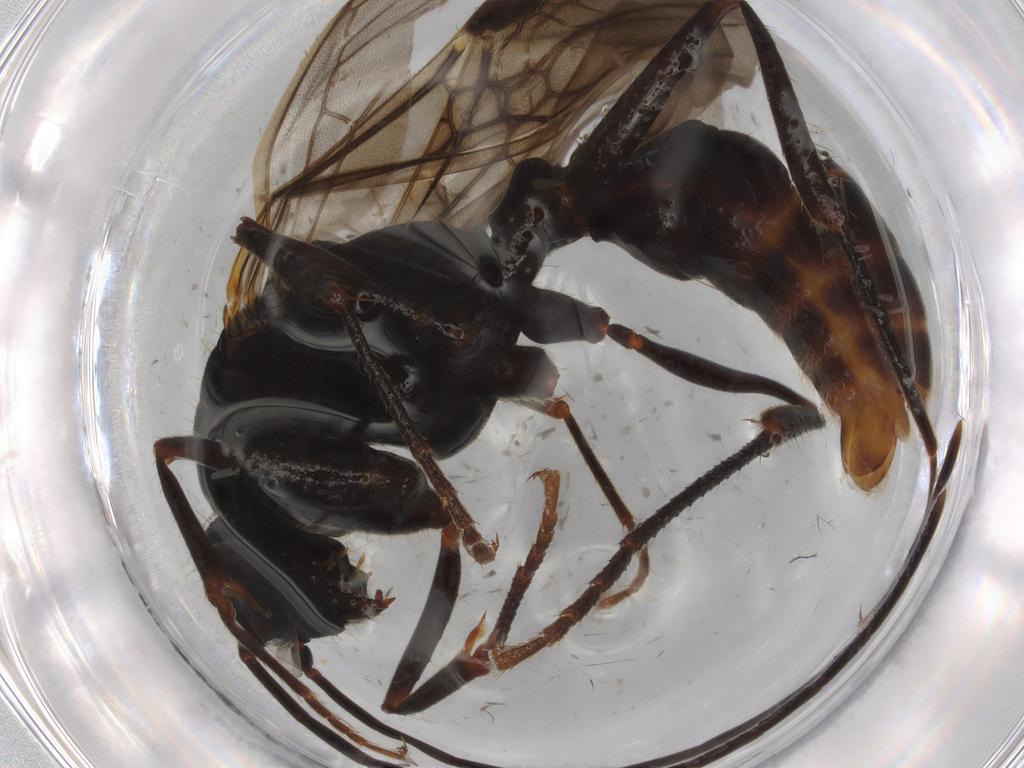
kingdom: Animalia
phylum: Arthropoda
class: Insecta
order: Hymenoptera
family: Formicidae
